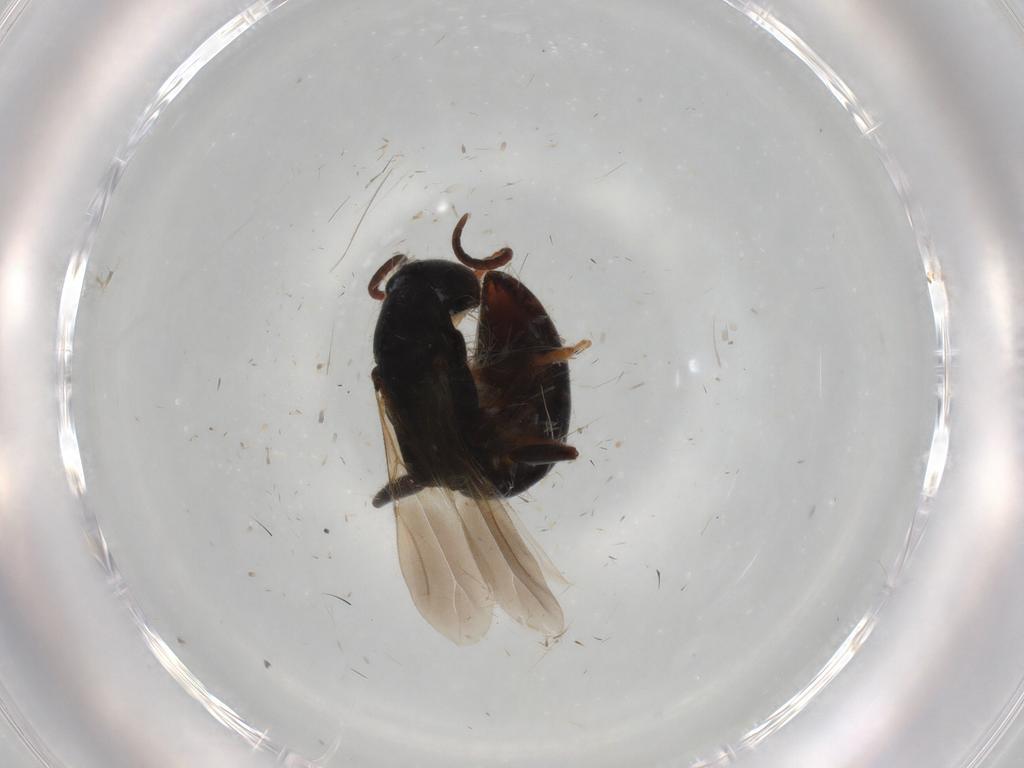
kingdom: Animalia
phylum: Arthropoda
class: Insecta
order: Hymenoptera
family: Bethylidae
